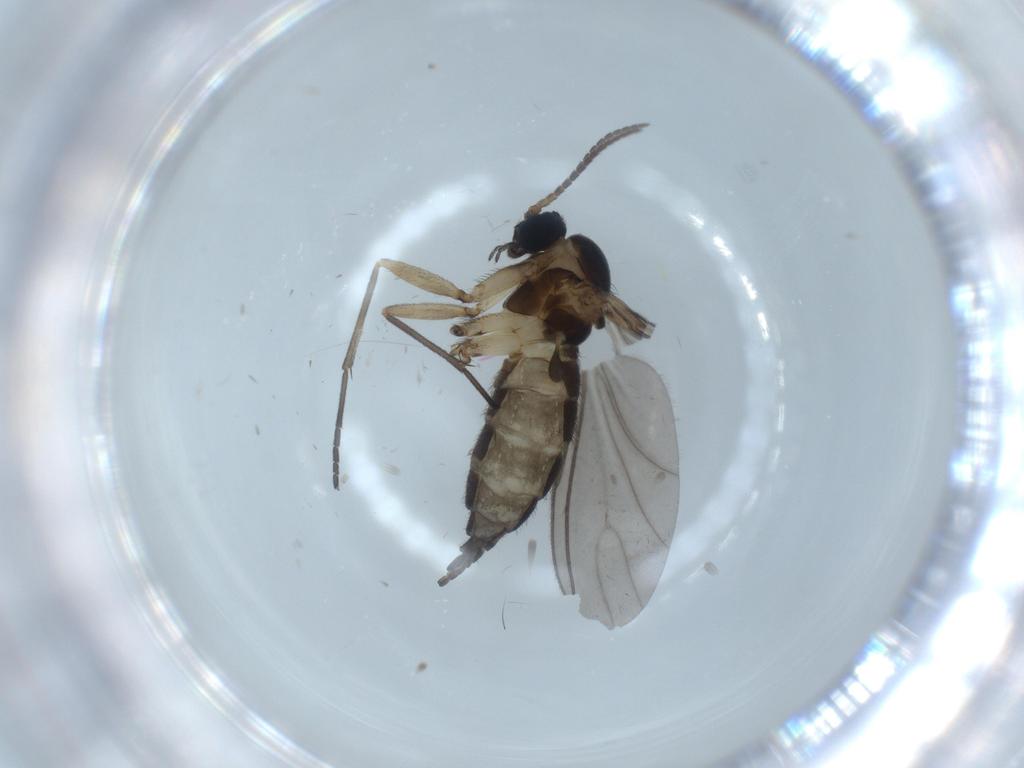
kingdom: Animalia
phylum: Arthropoda
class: Insecta
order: Diptera
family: Sciaridae
